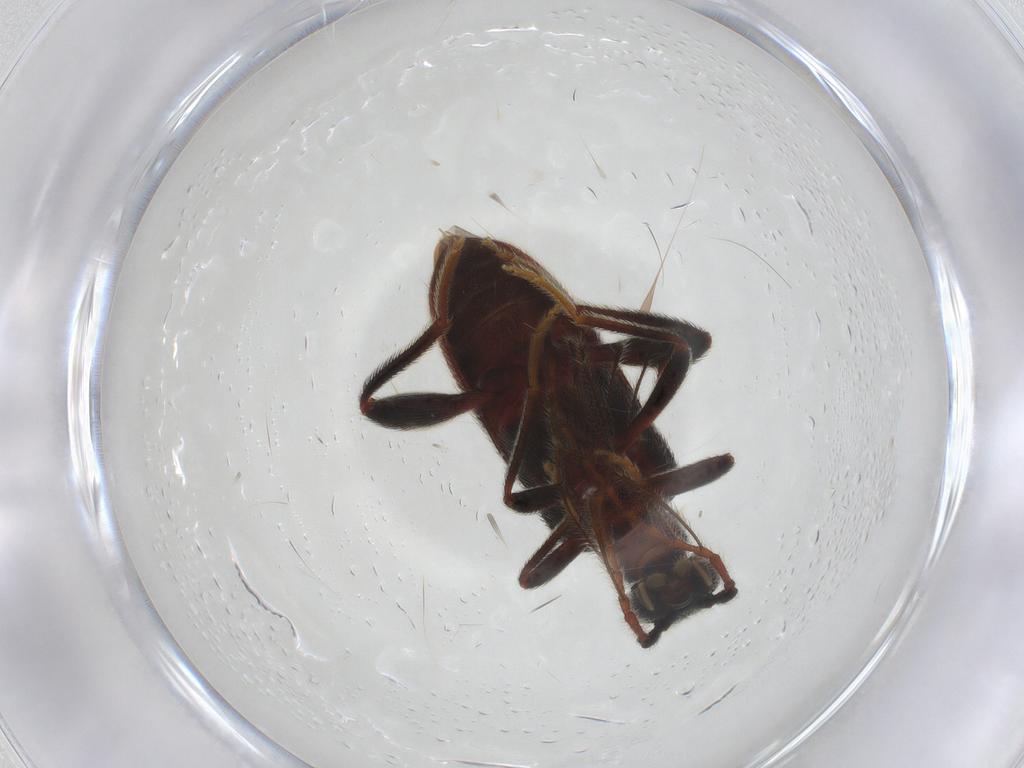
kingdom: Animalia
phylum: Arthropoda
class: Insecta
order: Coleoptera
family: Aderidae
